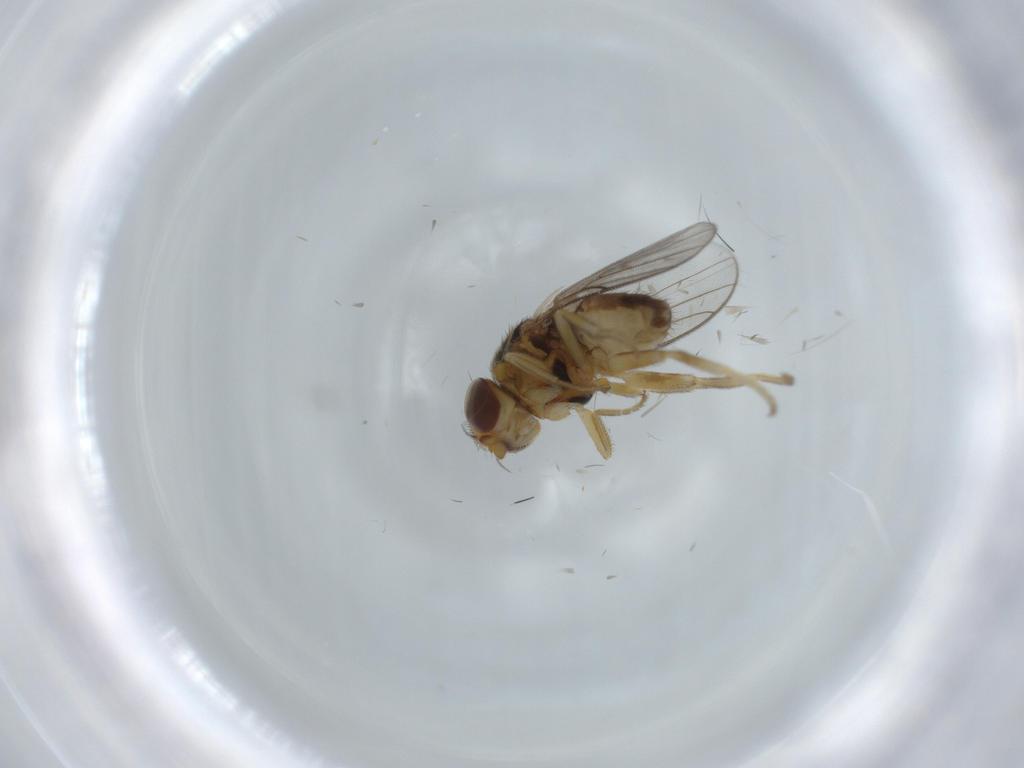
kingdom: Animalia
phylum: Arthropoda
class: Insecta
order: Diptera
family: Chloropidae
